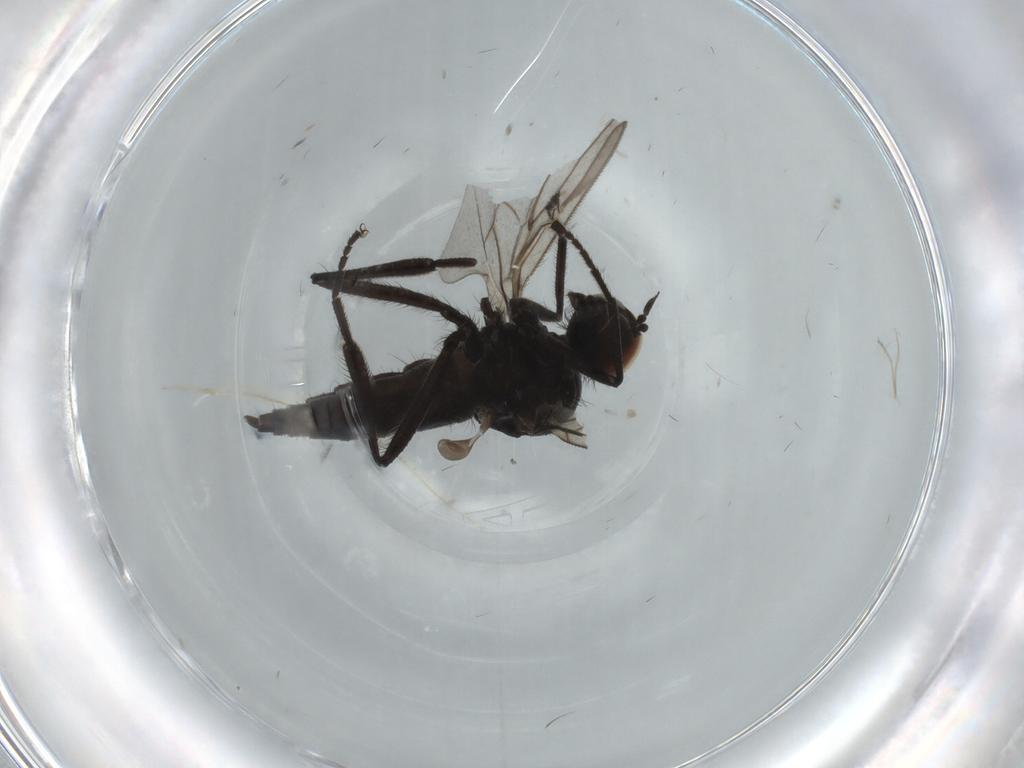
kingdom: Animalia
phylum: Arthropoda
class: Insecta
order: Diptera
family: Hybotidae
